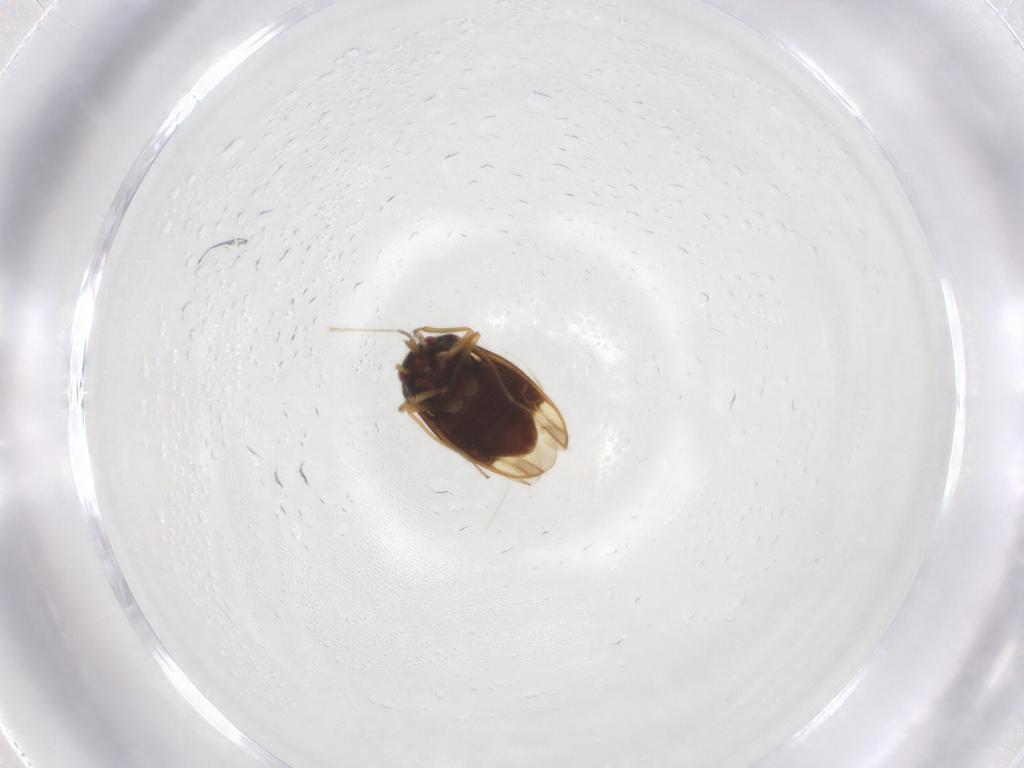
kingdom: Animalia
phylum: Arthropoda
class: Insecta
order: Hemiptera
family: Schizopteridae
